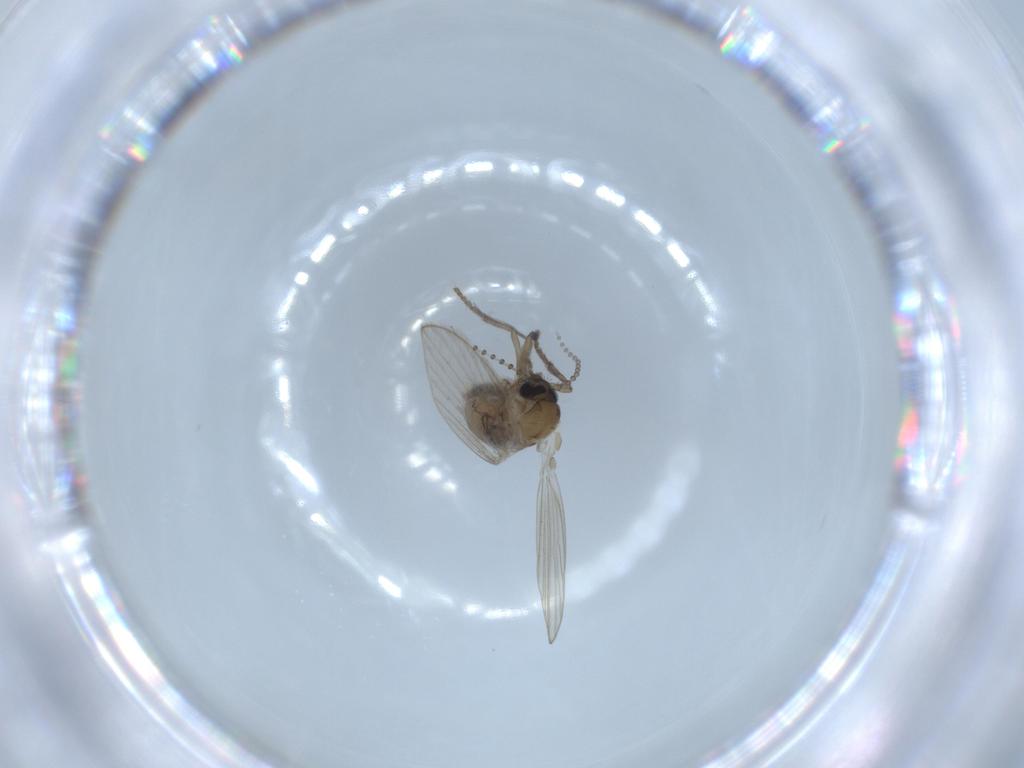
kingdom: Animalia
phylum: Arthropoda
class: Insecta
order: Diptera
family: Psychodidae
